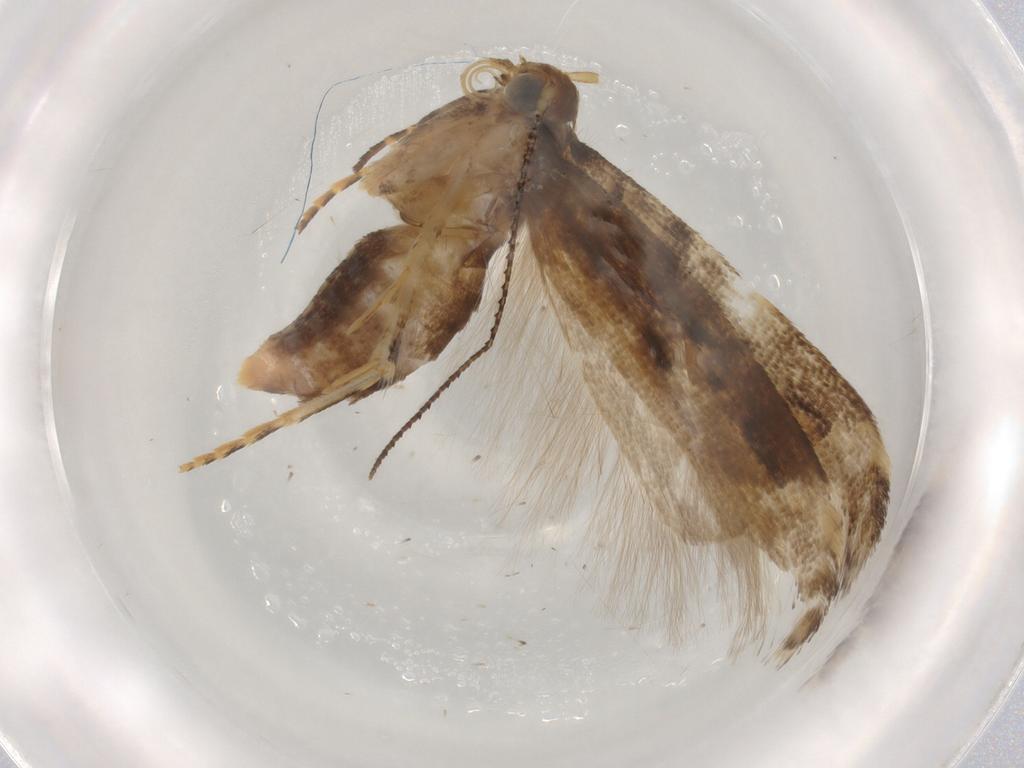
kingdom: Animalia
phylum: Arthropoda
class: Insecta
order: Lepidoptera
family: Gelechiidae
